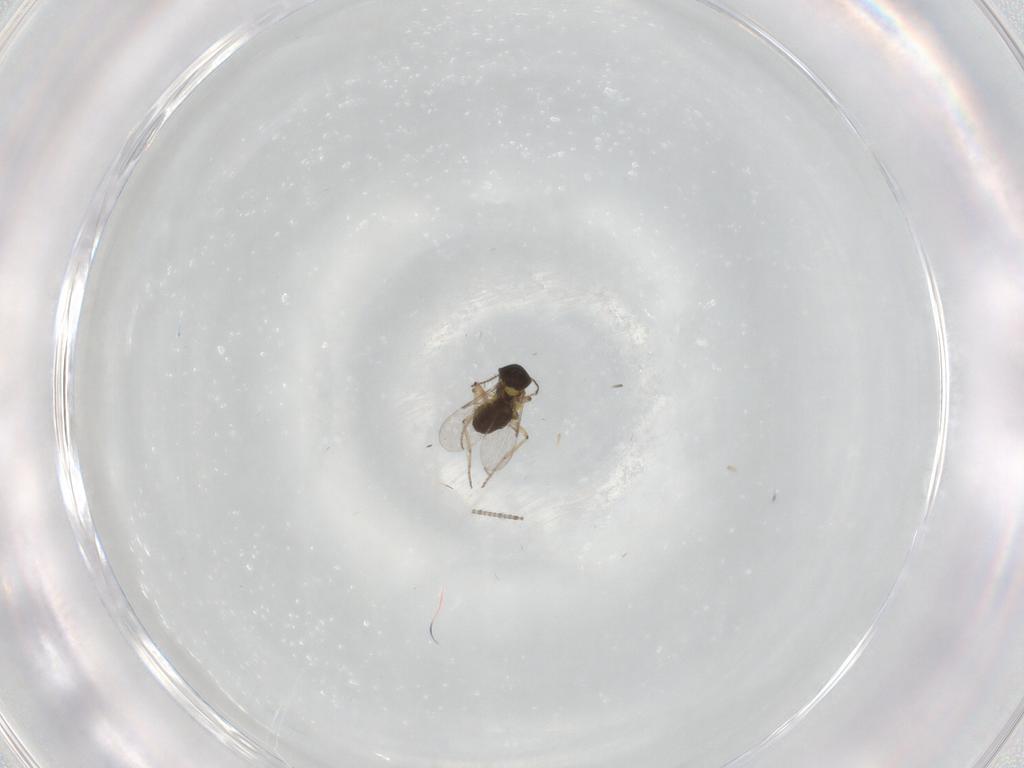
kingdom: Animalia
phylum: Arthropoda
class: Insecta
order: Diptera
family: Ceratopogonidae
